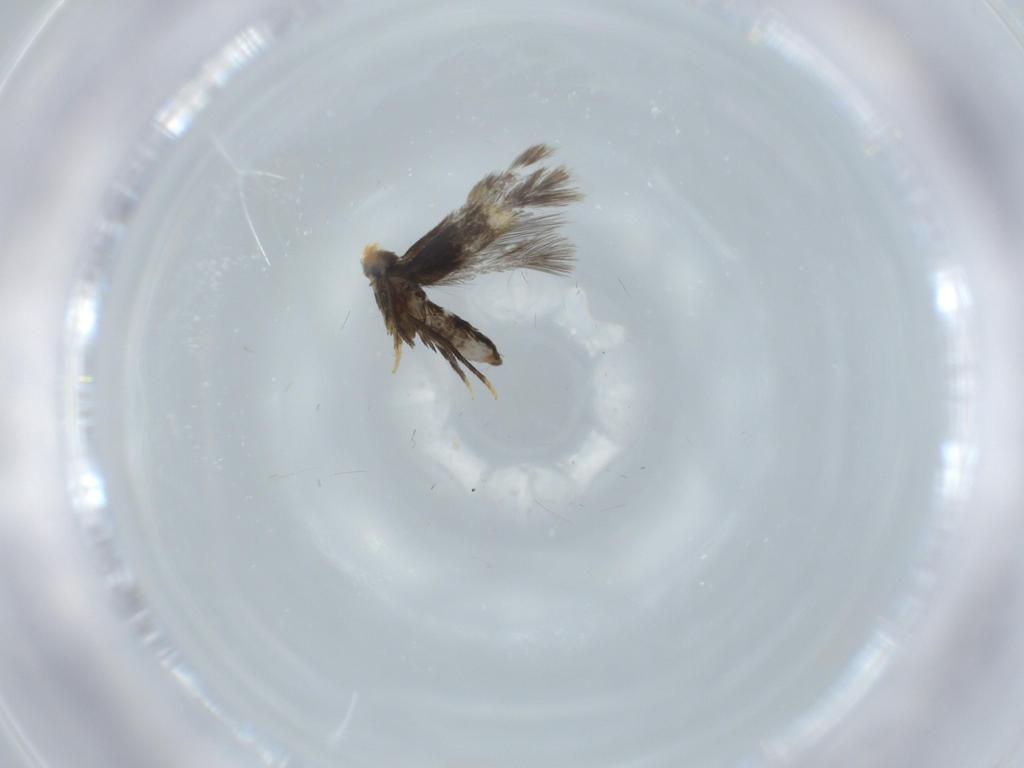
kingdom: Animalia
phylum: Arthropoda
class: Insecta
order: Lepidoptera
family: Nepticulidae
